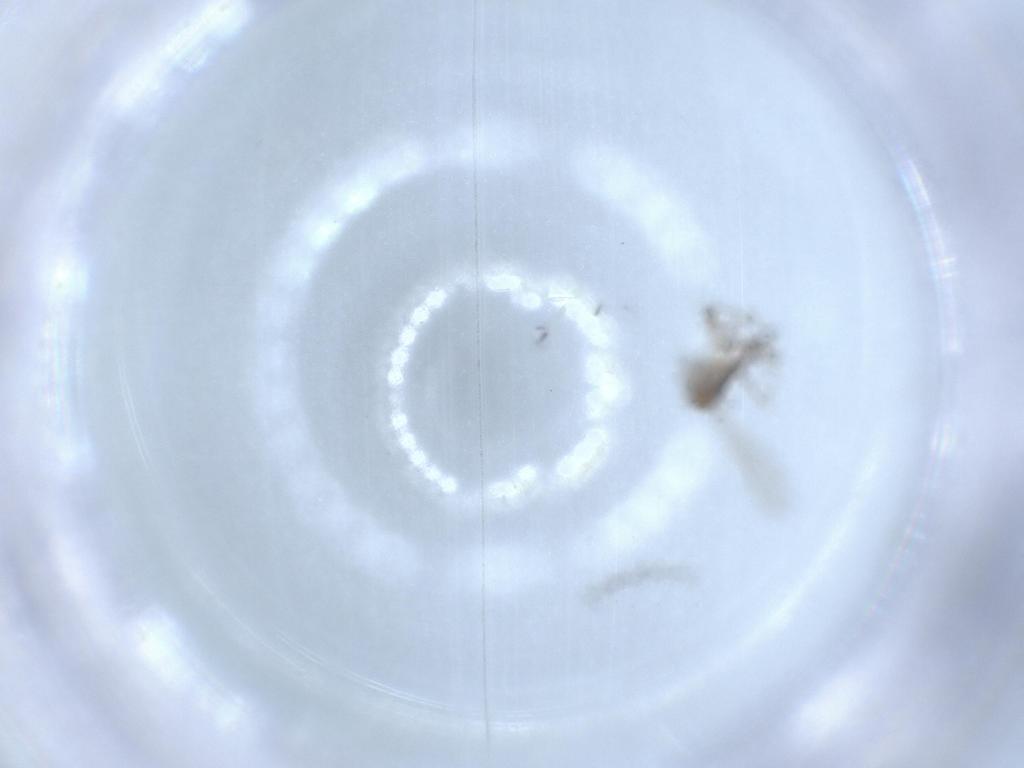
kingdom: Animalia
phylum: Arthropoda
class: Insecta
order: Diptera
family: Chironomidae
